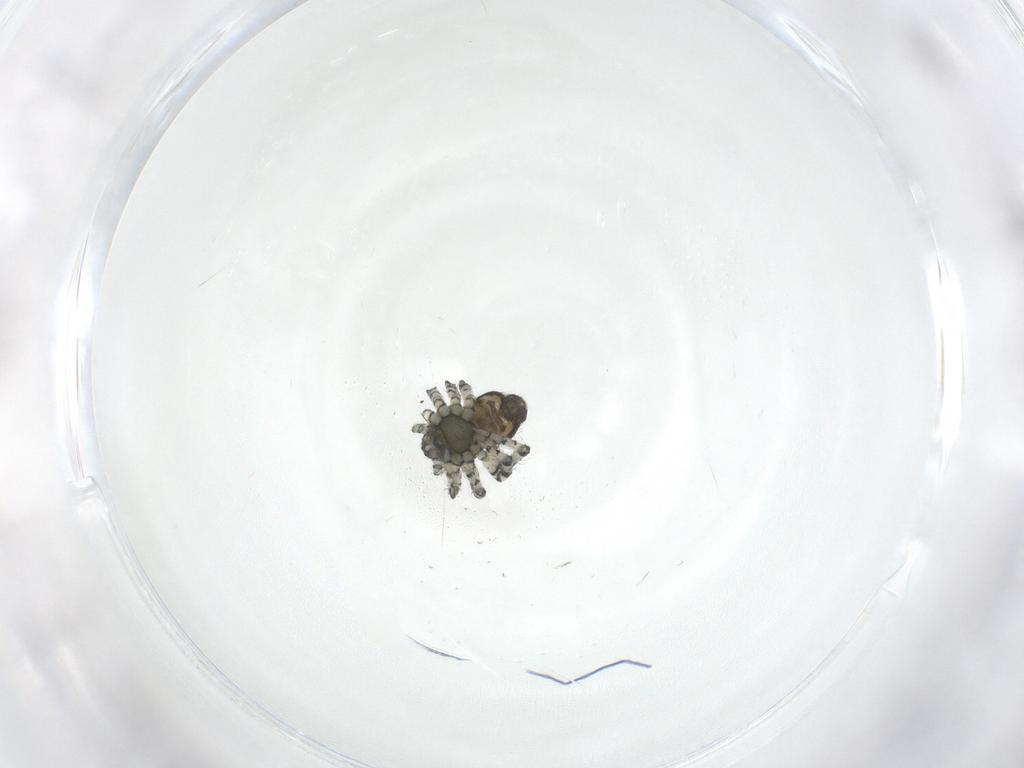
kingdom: Animalia
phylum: Arthropoda
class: Arachnida
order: Araneae
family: Theridiidae
